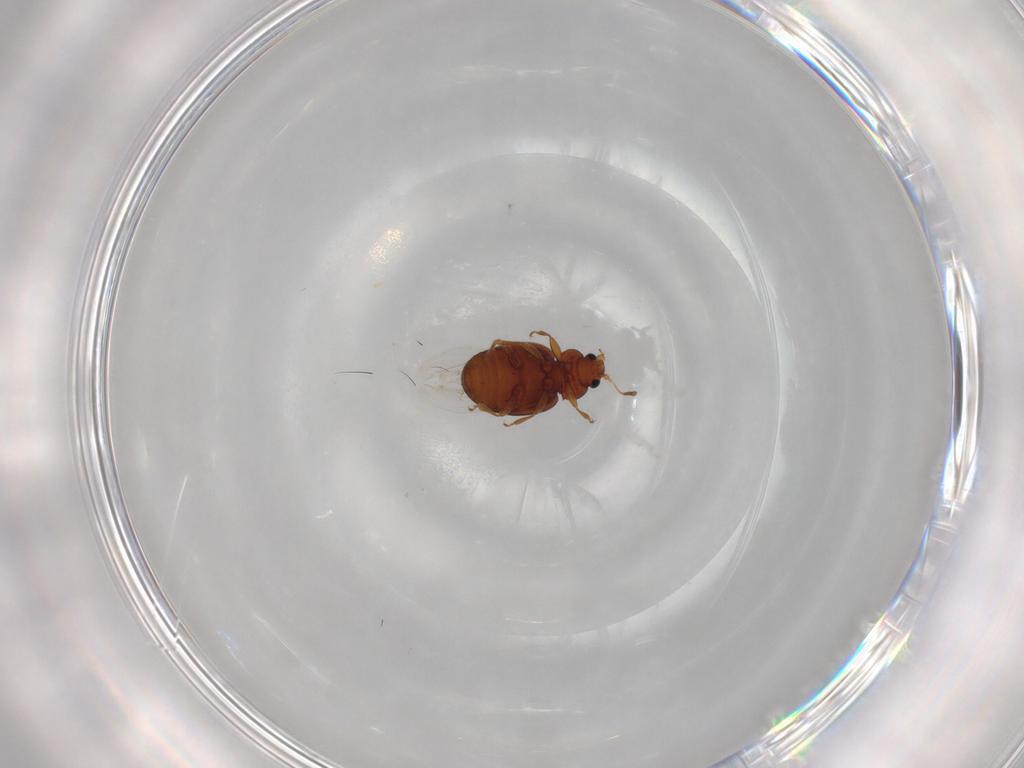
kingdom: Animalia
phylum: Arthropoda
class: Insecta
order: Coleoptera
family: Latridiidae
